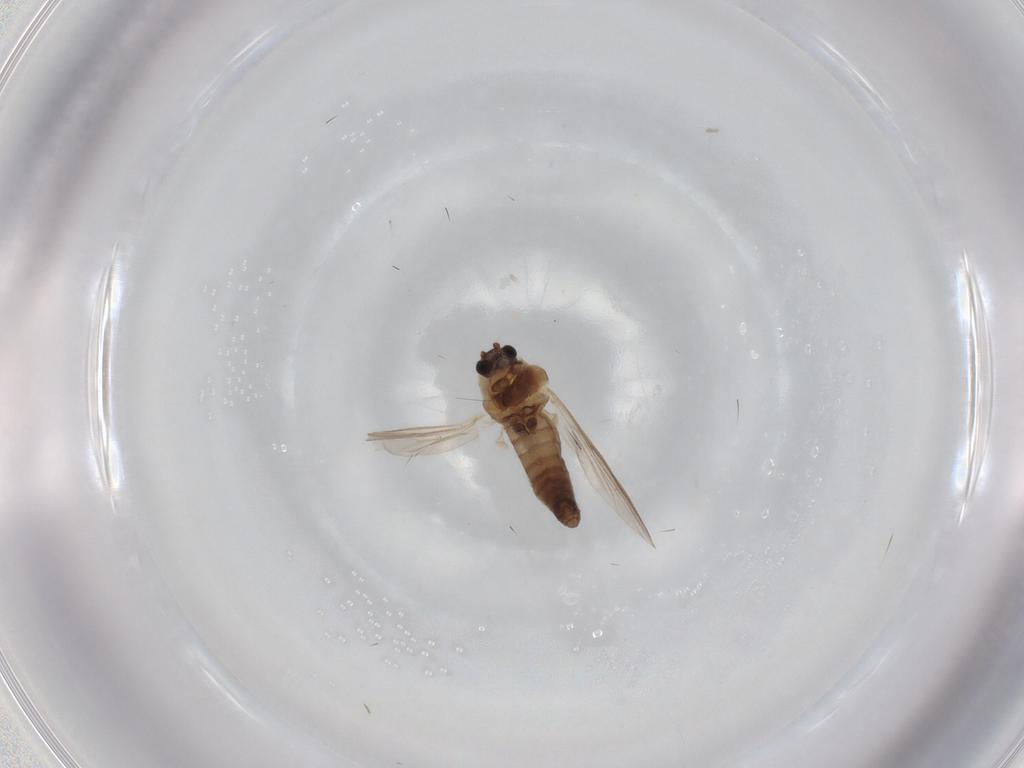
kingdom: Animalia
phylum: Arthropoda
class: Insecta
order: Diptera
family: Chironomidae
